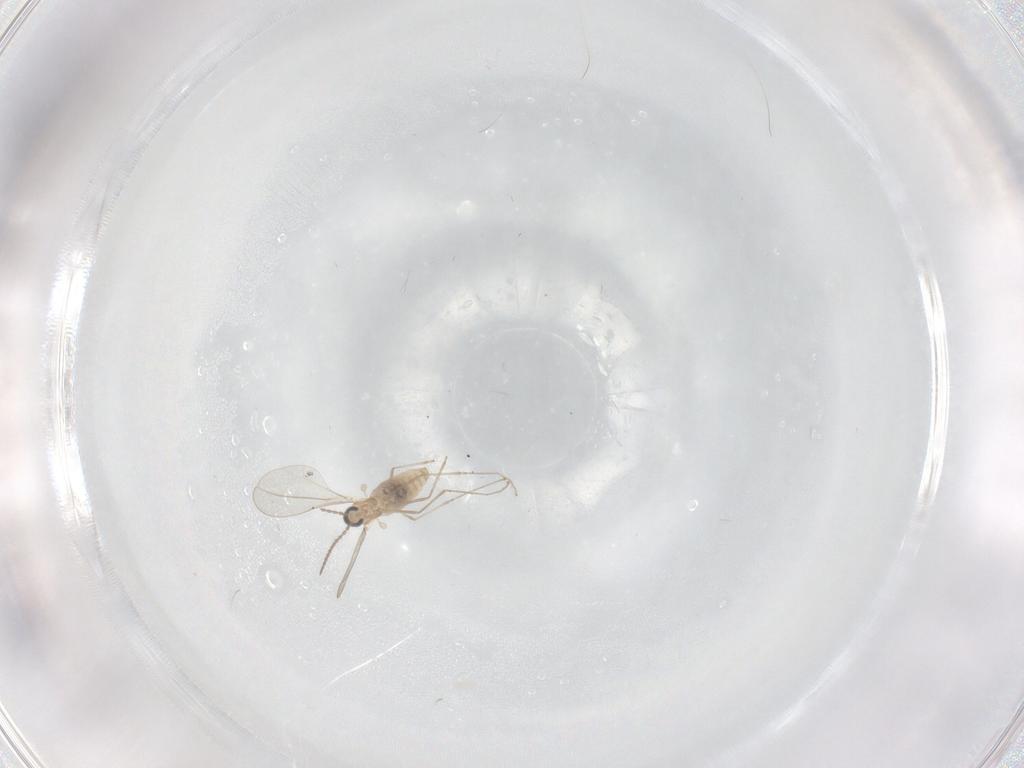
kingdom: Animalia
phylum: Arthropoda
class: Insecta
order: Diptera
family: Cecidomyiidae
